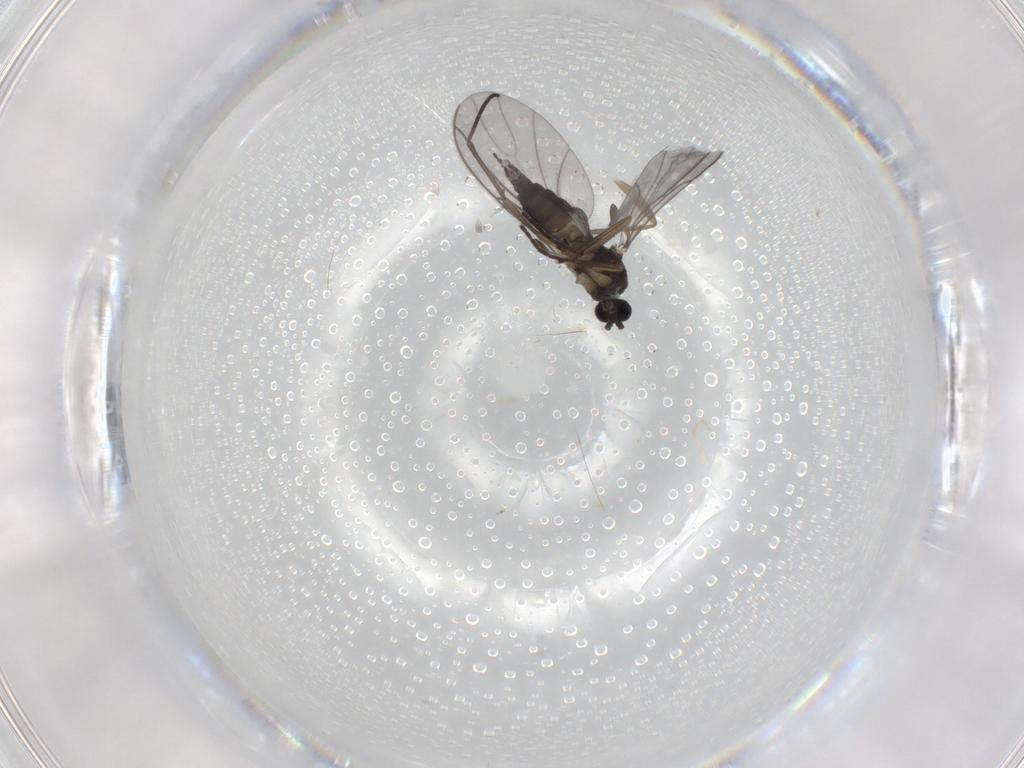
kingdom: Animalia
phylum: Arthropoda
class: Insecta
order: Diptera
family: Sciaridae
